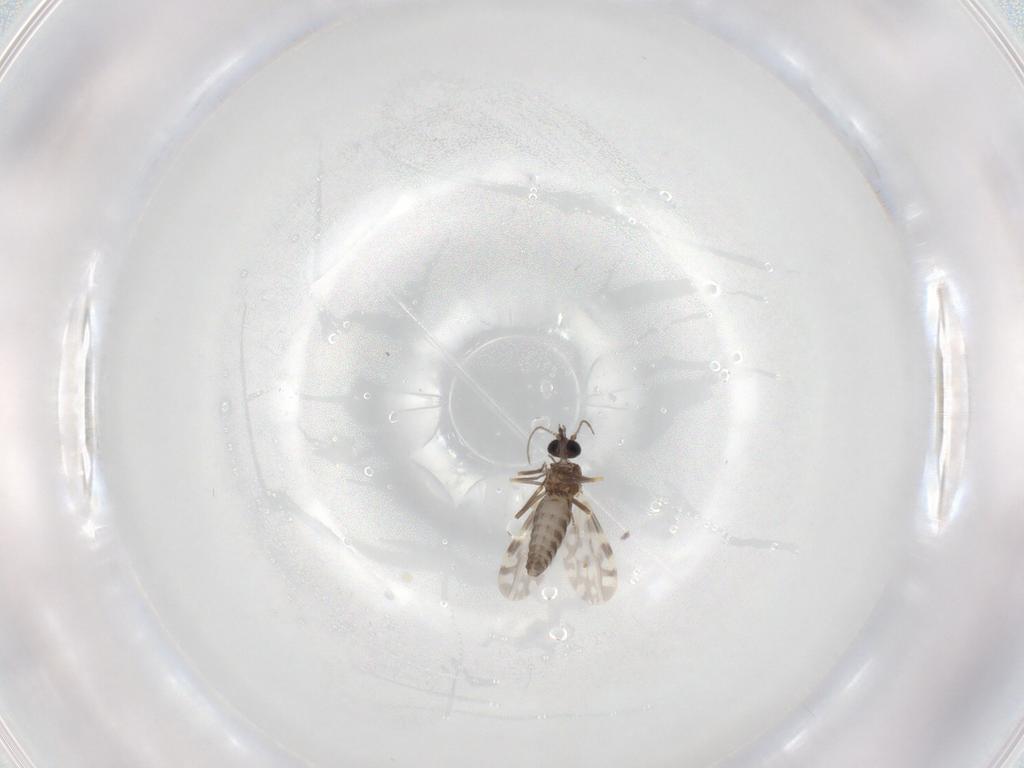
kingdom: Animalia
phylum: Arthropoda
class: Insecta
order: Diptera
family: Ceratopogonidae
